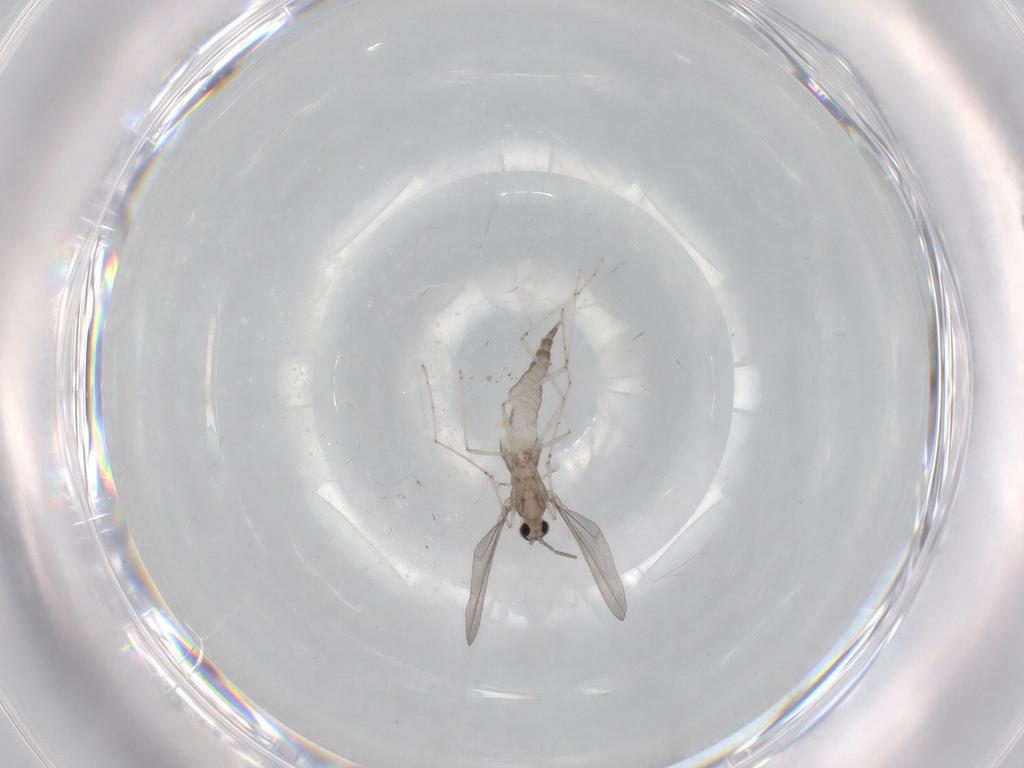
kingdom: Animalia
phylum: Arthropoda
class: Insecta
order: Diptera
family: Cecidomyiidae
